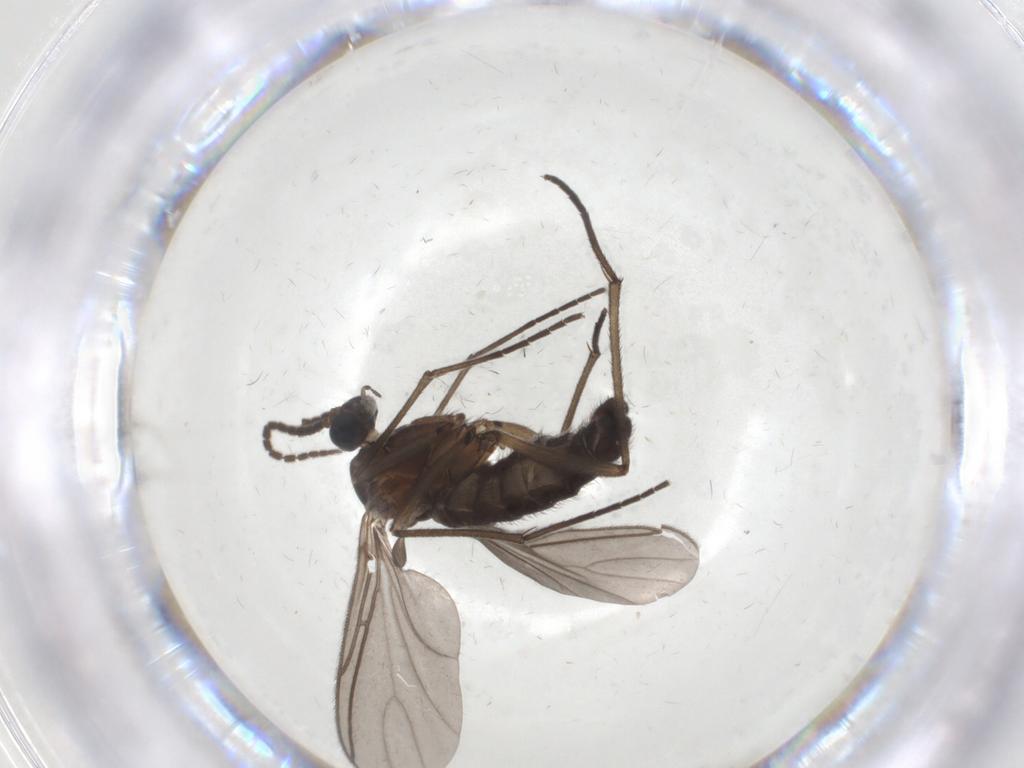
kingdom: Animalia
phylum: Arthropoda
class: Insecta
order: Diptera
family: Sciaridae
